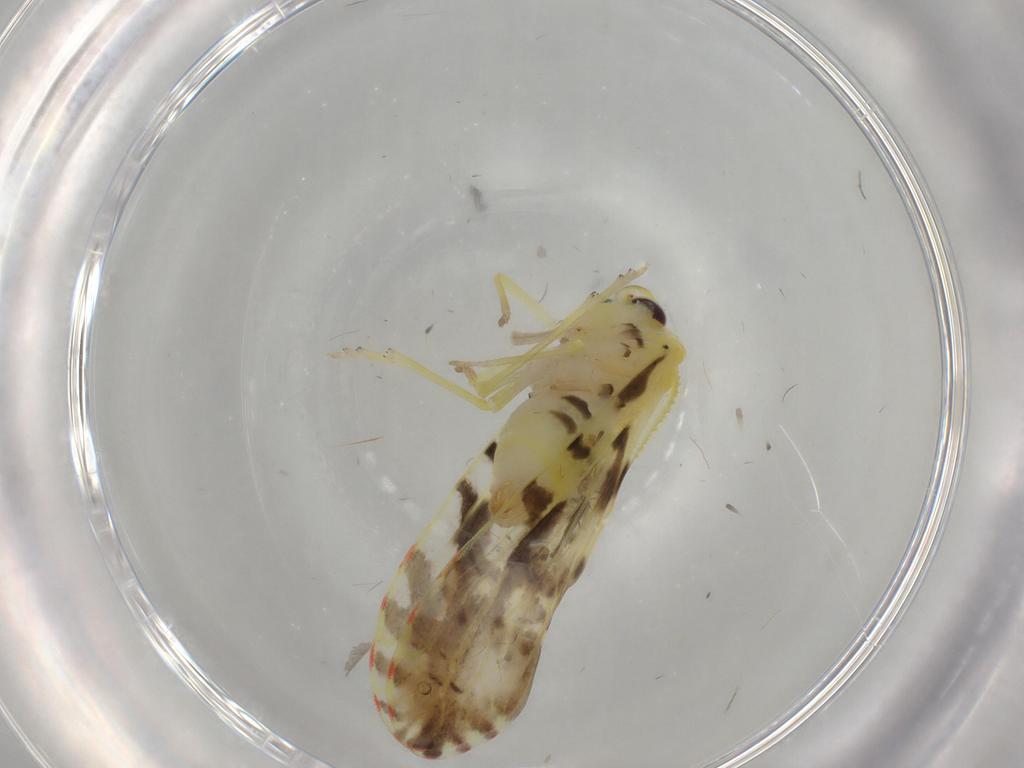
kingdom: Animalia
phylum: Arthropoda
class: Insecta
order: Hemiptera
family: Derbidae
